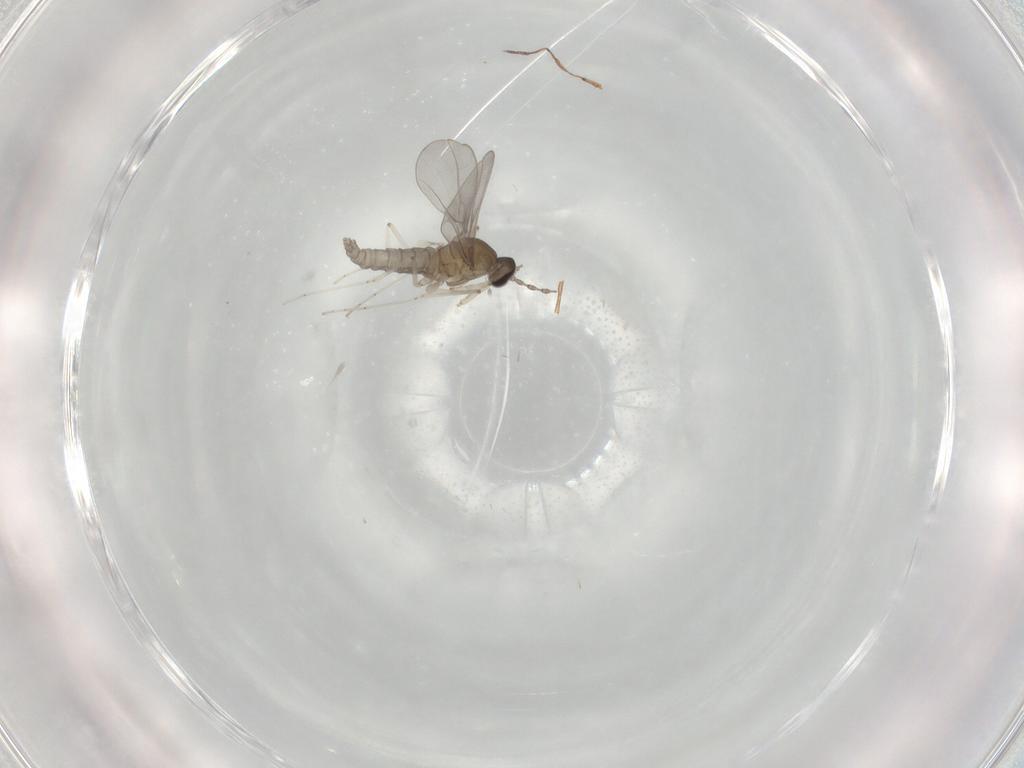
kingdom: Animalia
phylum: Arthropoda
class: Insecta
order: Diptera
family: Cecidomyiidae
